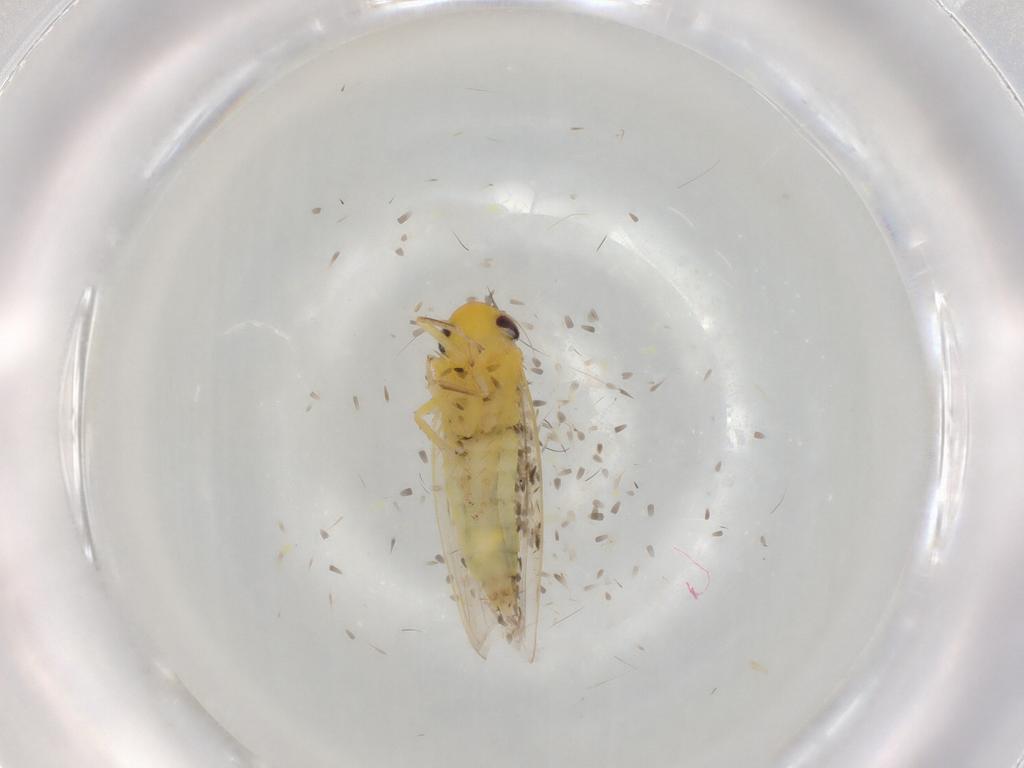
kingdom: Animalia
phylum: Arthropoda
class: Insecta
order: Hemiptera
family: Cicadellidae
